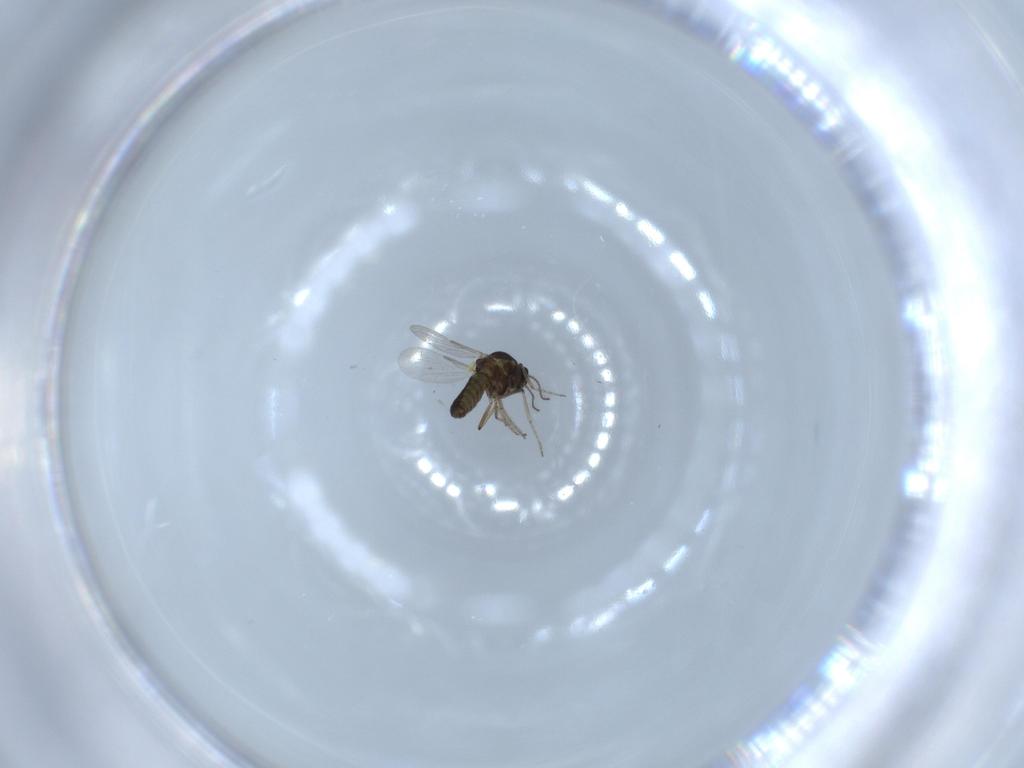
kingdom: Animalia
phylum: Arthropoda
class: Insecta
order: Diptera
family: Ceratopogonidae
